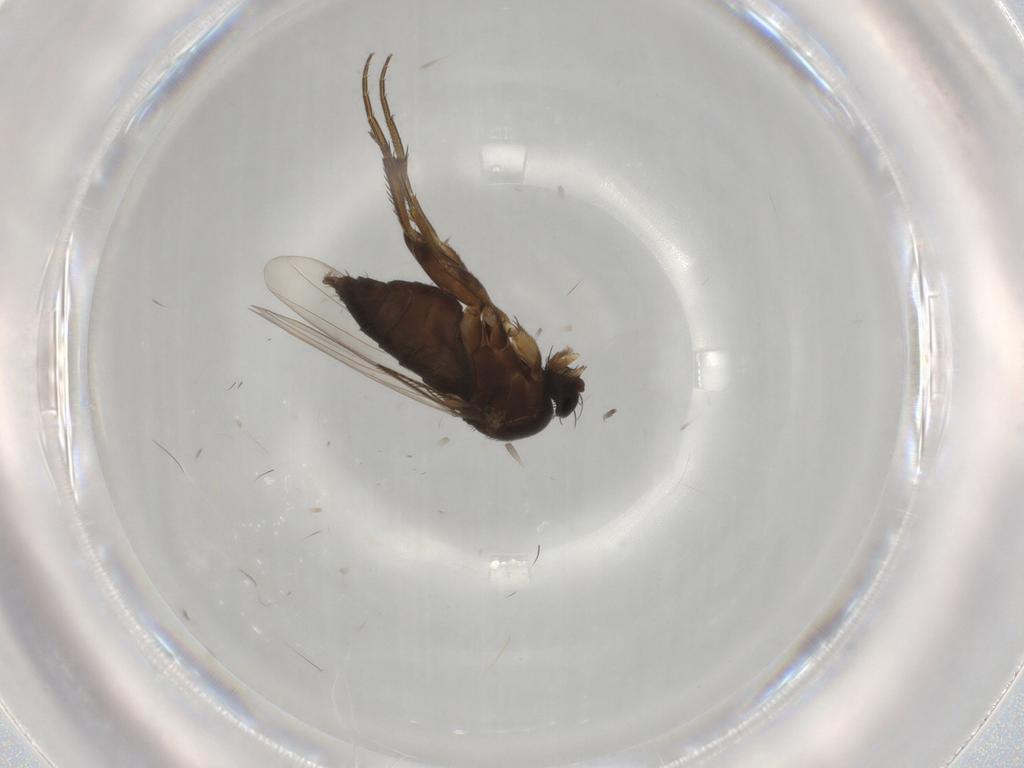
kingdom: Animalia
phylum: Arthropoda
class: Insecta
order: Diptera
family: Phoridae
